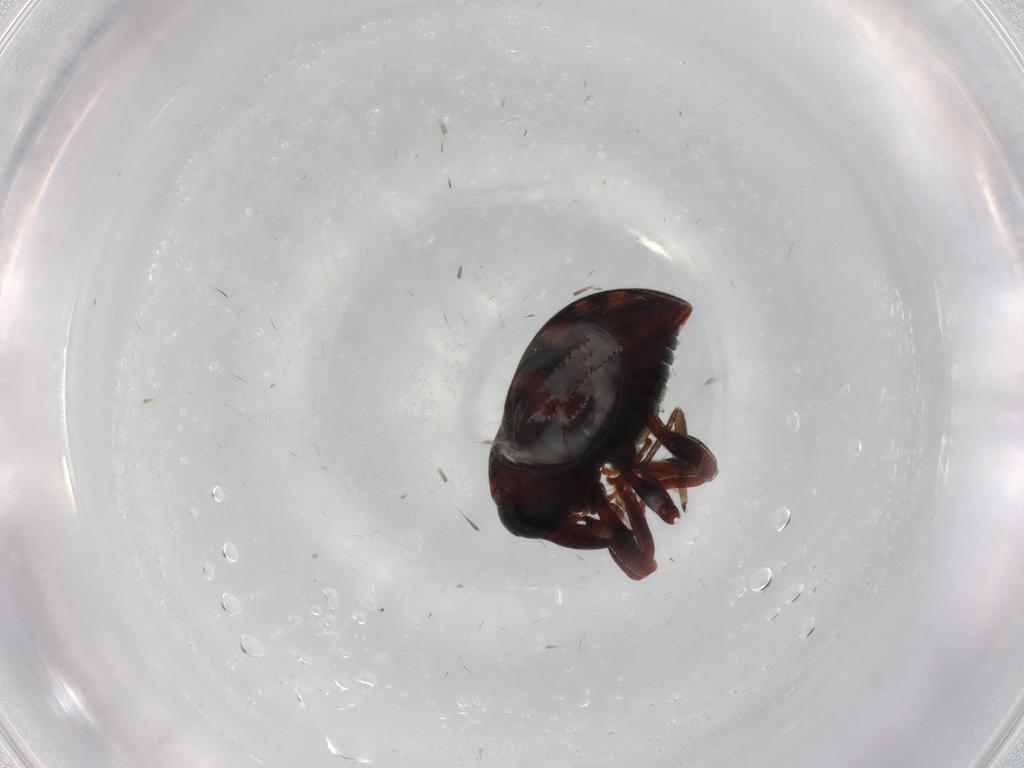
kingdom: Animalia
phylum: Arthropoda
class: Insecta
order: Coleoptera
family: Curculionidae
